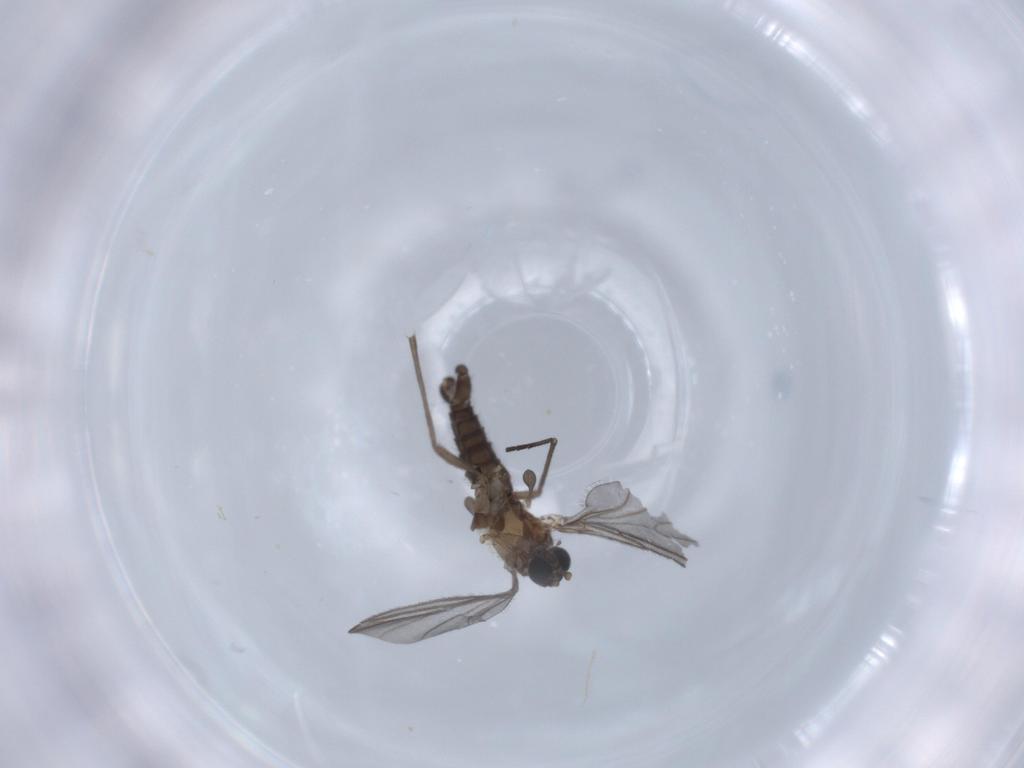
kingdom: Animalia
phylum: Arthropoda
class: Insecta
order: Diptera
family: Sciaridae
